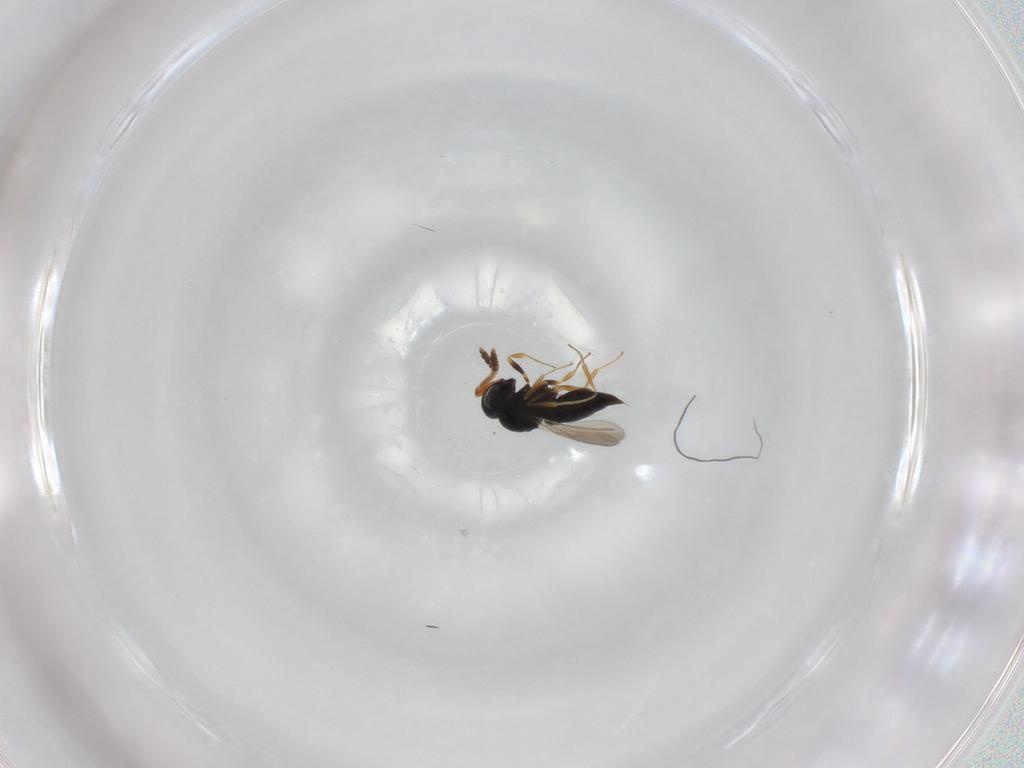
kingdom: Animalia
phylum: Arthropoda
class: Insecta
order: Hymenoptera
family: Scelionidae
